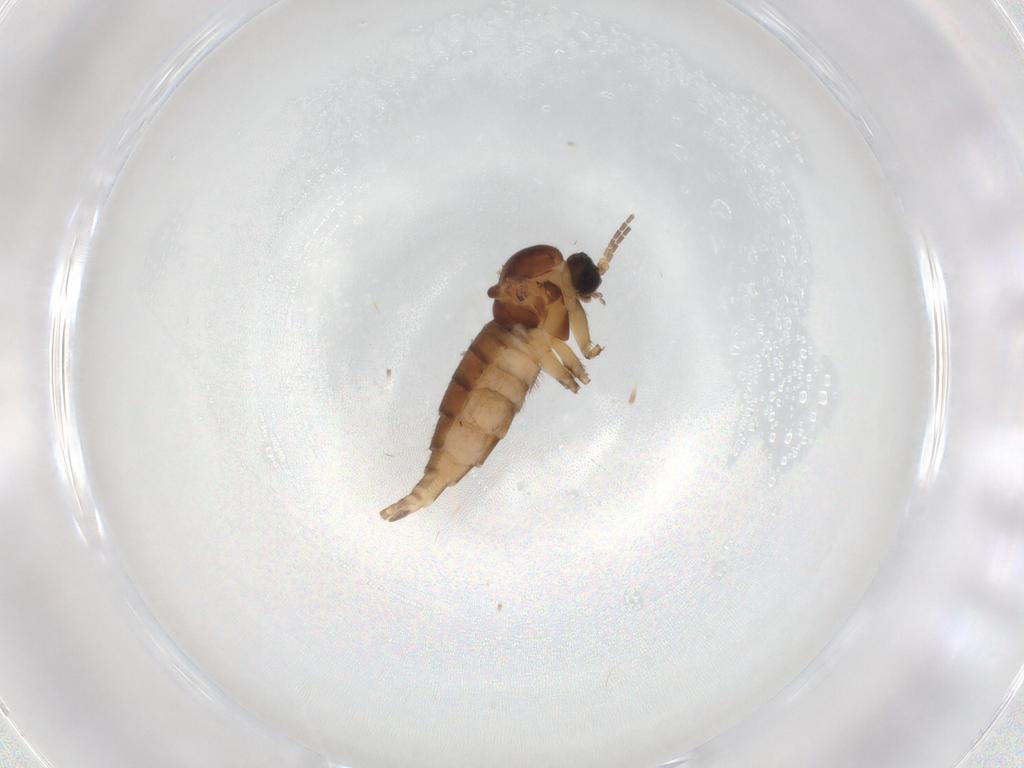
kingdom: Animalia
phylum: Arthropoda
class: Insecta
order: Diptera
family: Sciaridae
